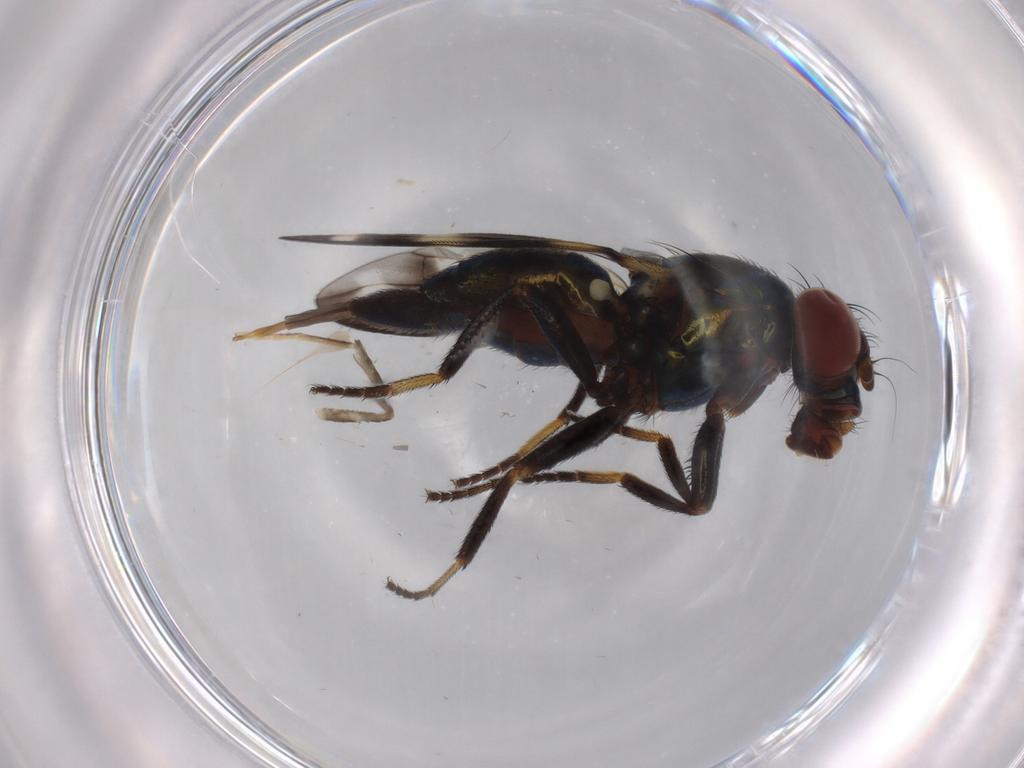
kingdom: Animalia
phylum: Arthropoda
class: Insecta
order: Diptera
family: Ulidiidae
